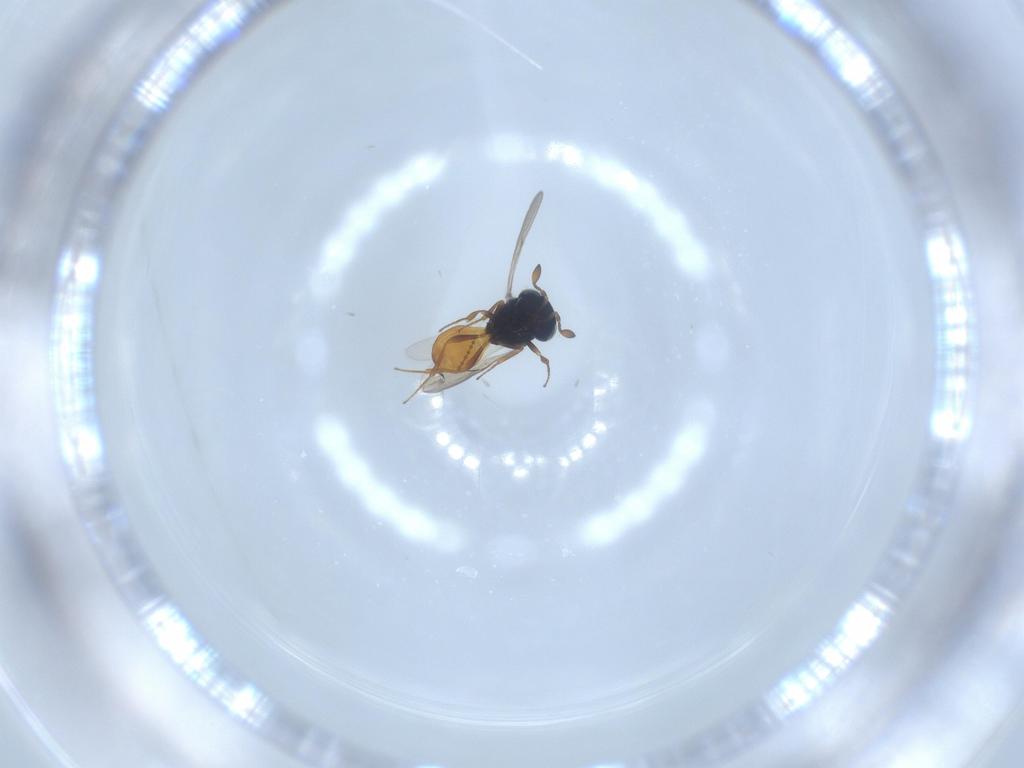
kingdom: Animalia
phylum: Arthropoda
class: Insecta
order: Hymenoptera
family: Scelionidae
